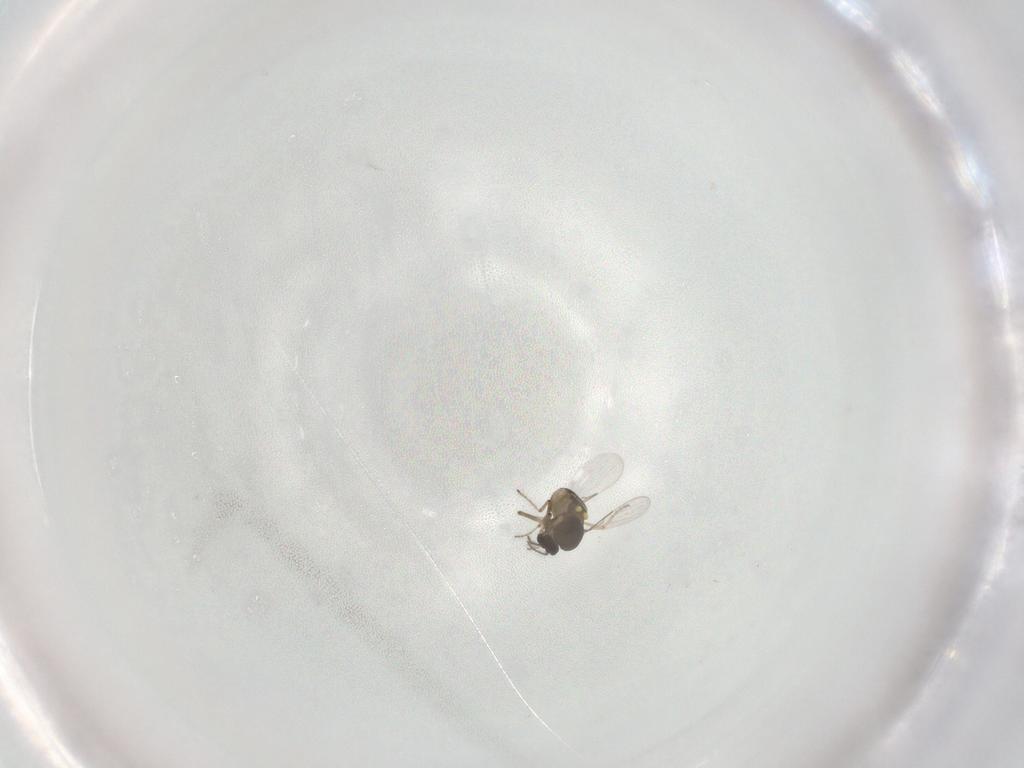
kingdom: Animalia
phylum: Arthropoda
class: Insecta
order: Diptera
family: Ceratopogonidae
